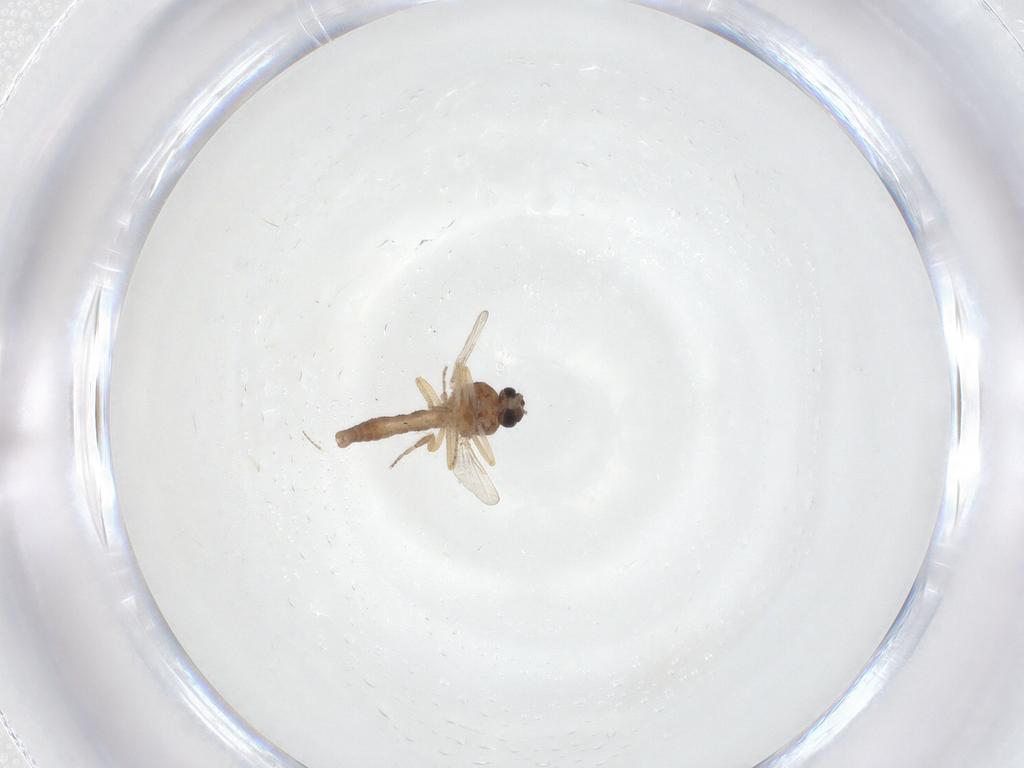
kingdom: Animalia
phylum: Arthropoda
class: Insecta
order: Diptera
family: Ceratopogonidae
